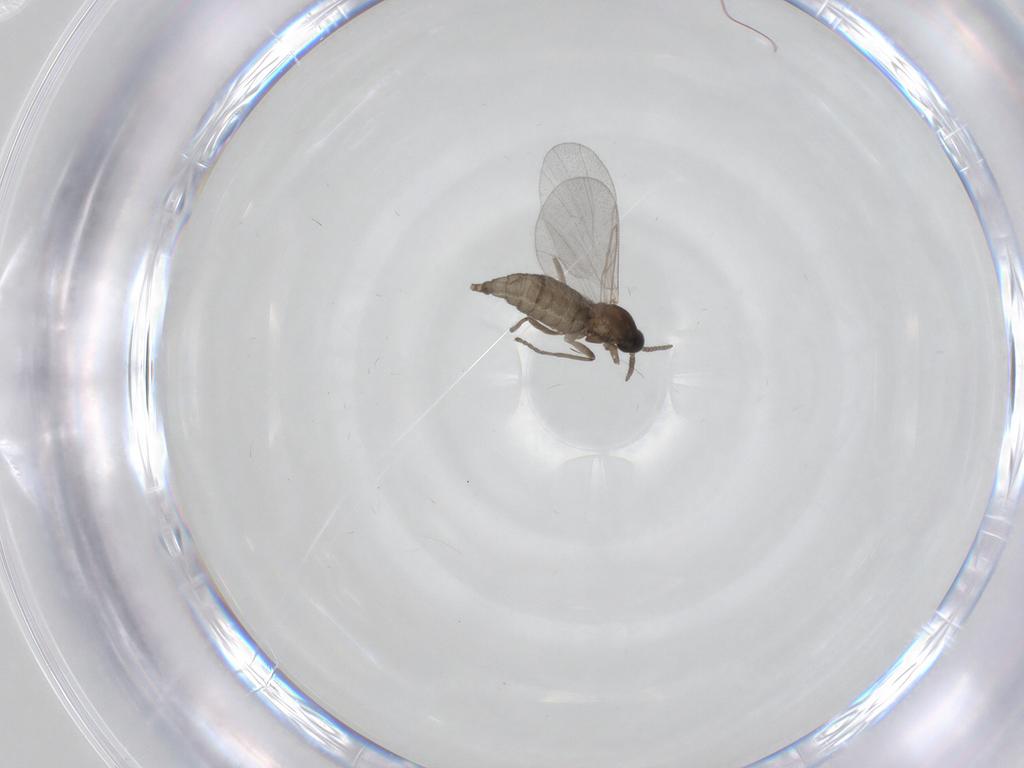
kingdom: Animalia
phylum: Arthropoda
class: Insecta
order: Diptera
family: Cecidomyiidae
